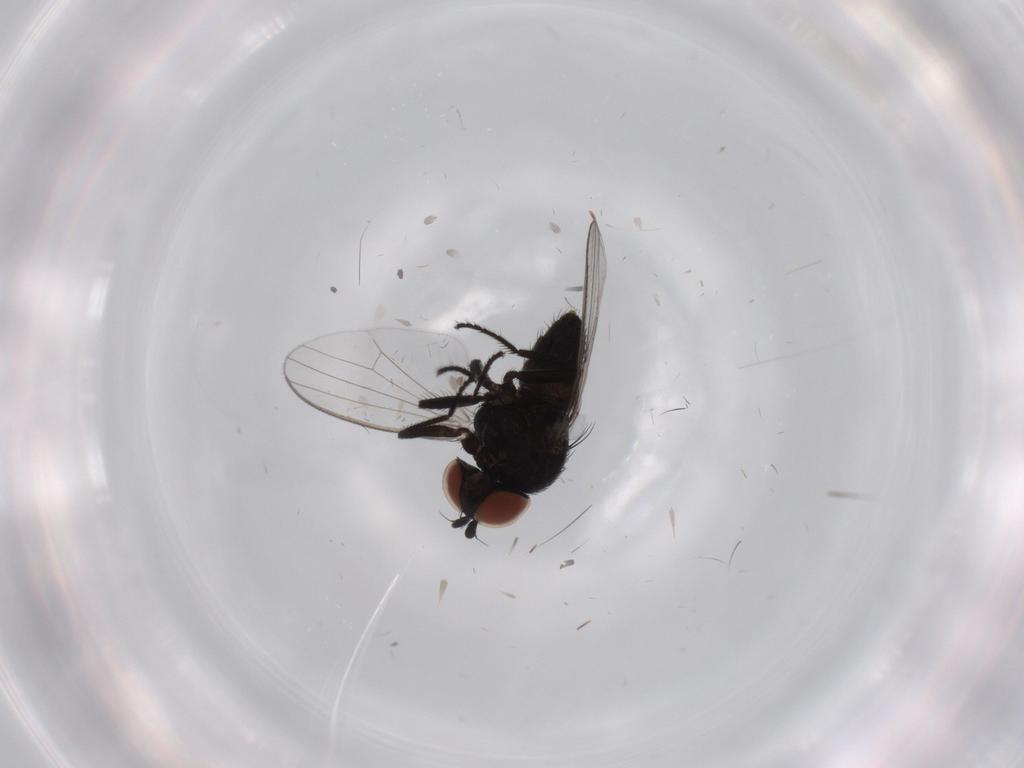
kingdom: Animalia
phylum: Arthropoda
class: Insecta
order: Diptera
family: Milichiidae
